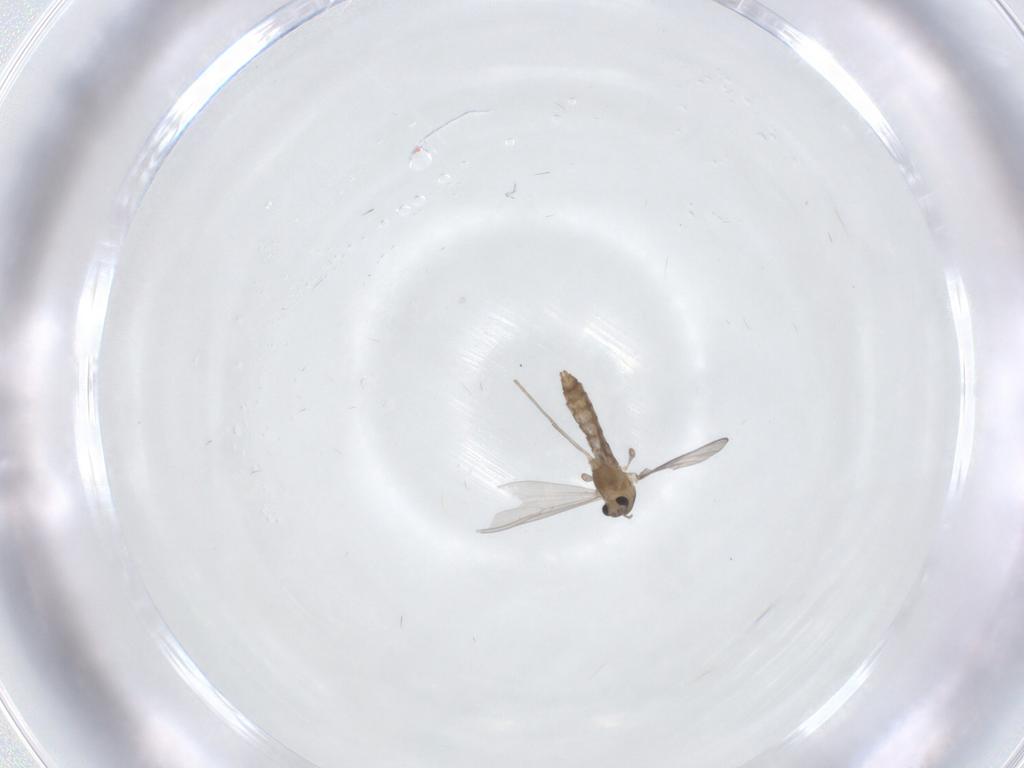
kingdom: Animalia
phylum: Arthropoda
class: Insecta
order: Diptera
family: Chironomidae
